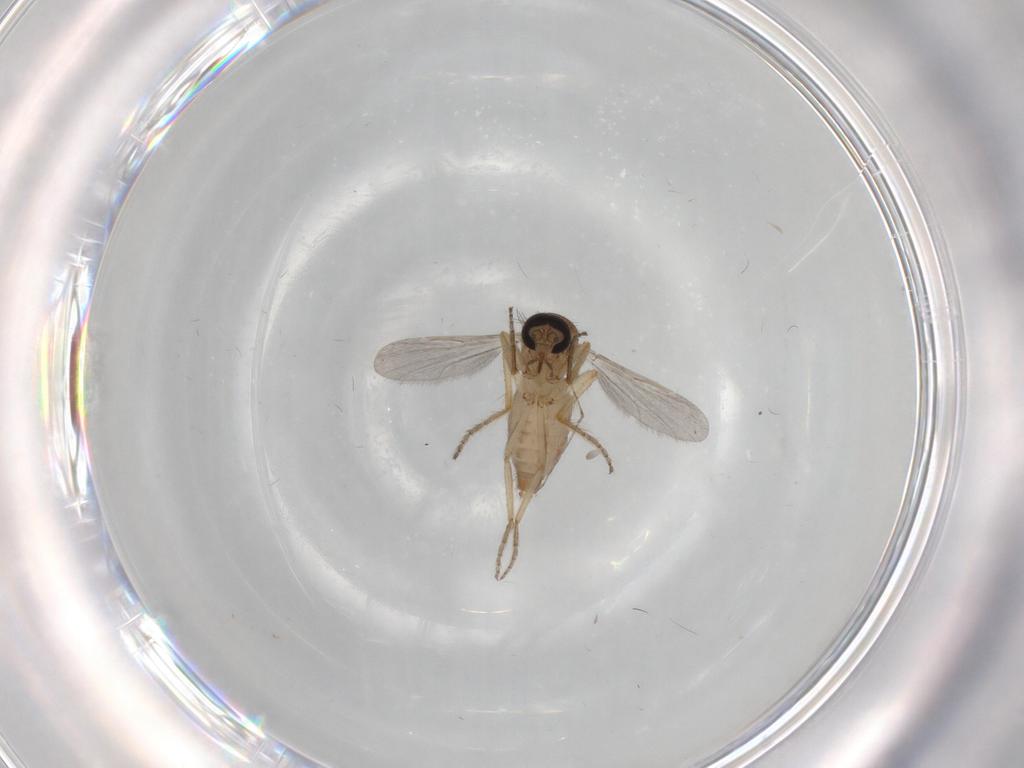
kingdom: Animalia
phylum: Arthropoda
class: Insecta
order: Diptera
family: Ceratopogonidae
